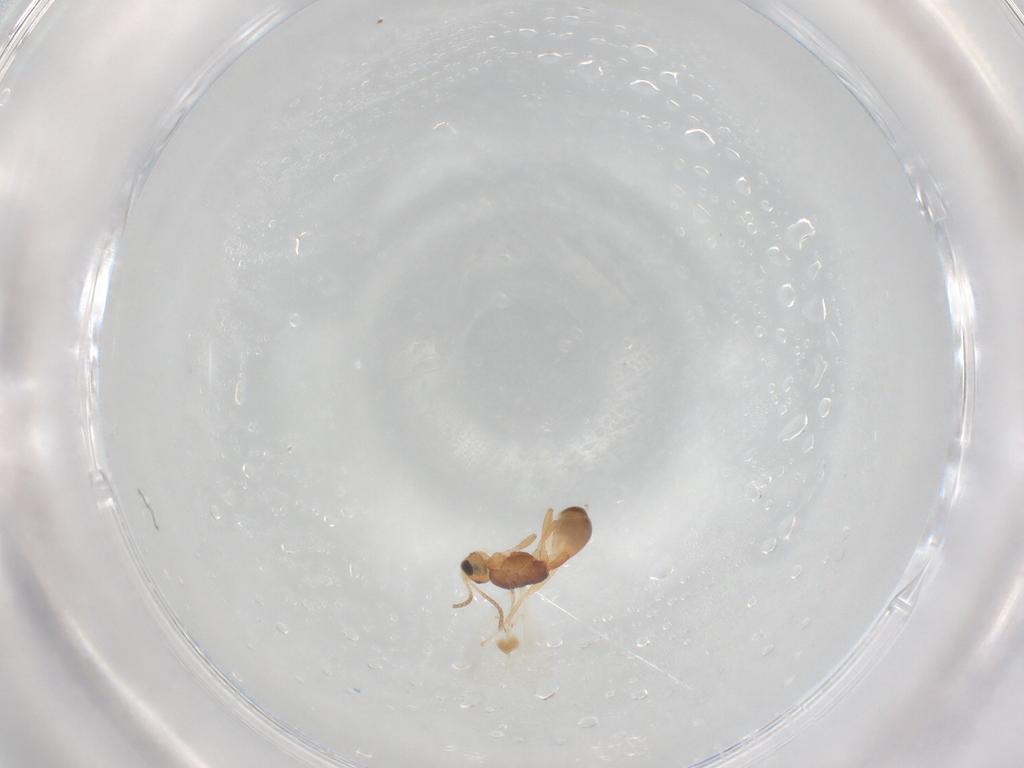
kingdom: Animalia
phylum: Arthropoda
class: Insecta
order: Hymenoptera
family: Braconidae
